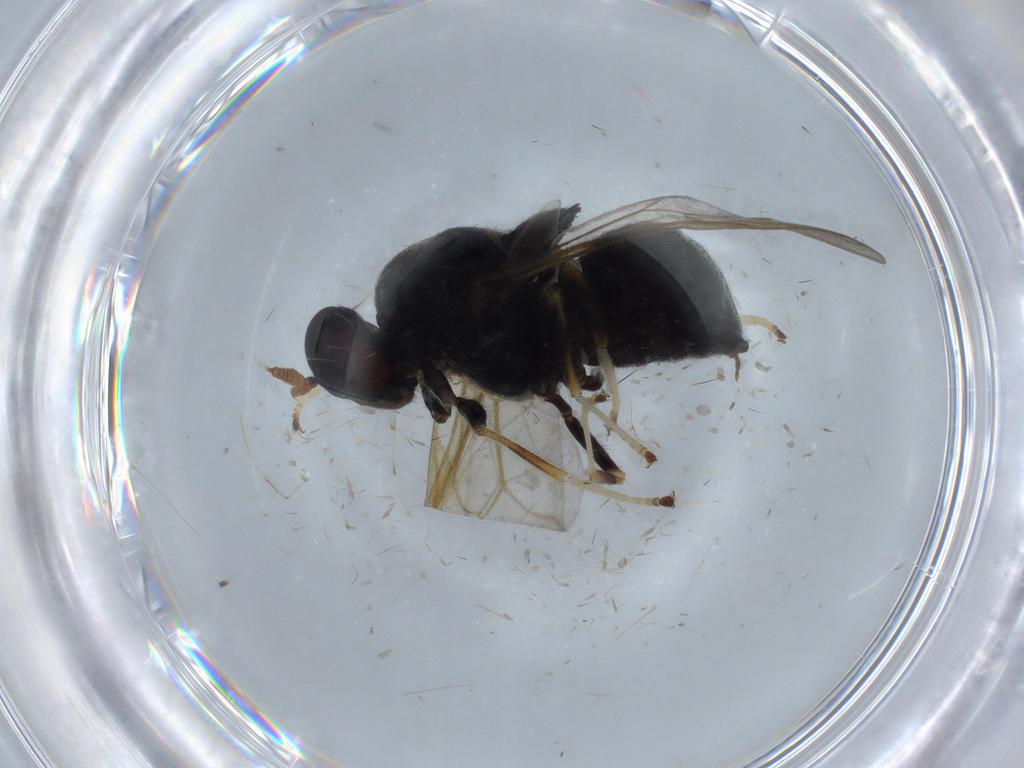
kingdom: Animalia
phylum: Arthropoda
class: Insecta
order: Diptera
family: Stratiomyidae
